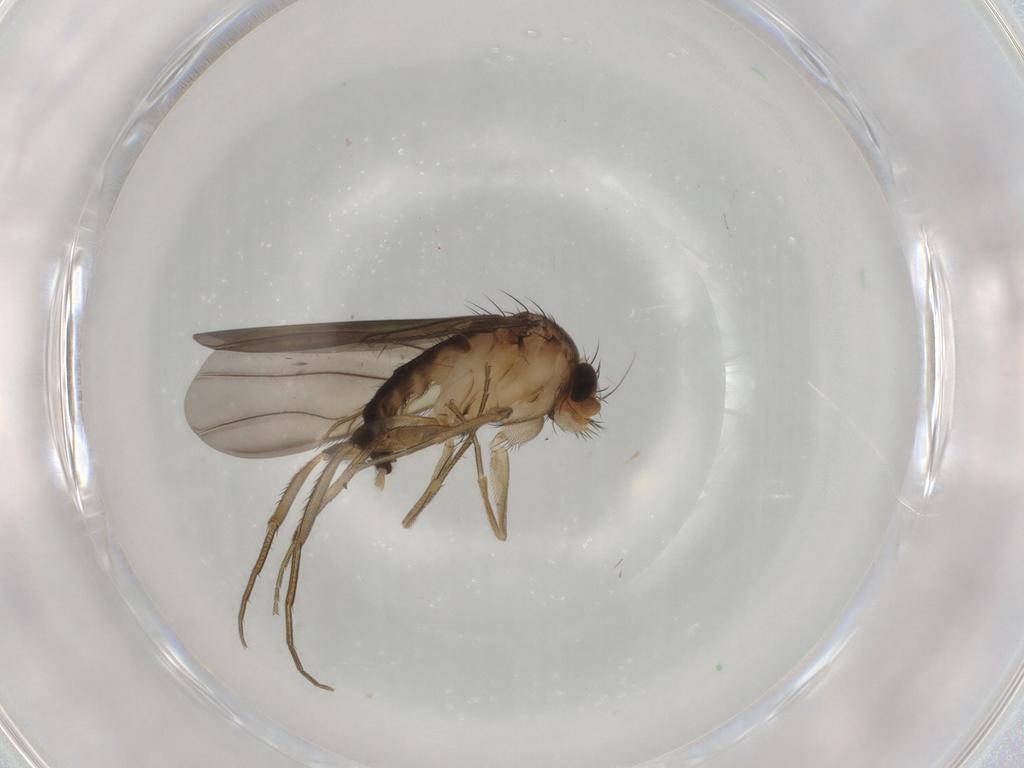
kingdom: Animalia
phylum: Arthropoda
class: Insecta
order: Diptera
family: Phoridae
